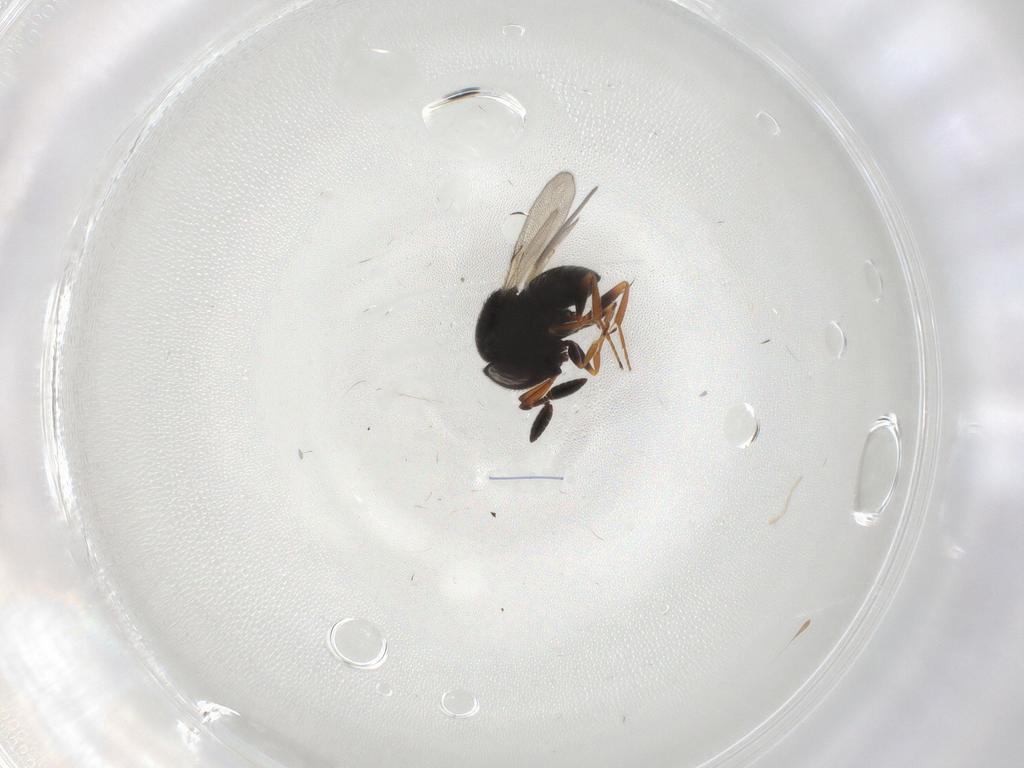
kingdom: Animalia
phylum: Arthropoda
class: Insecta
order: Hymenoptera
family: Scelionidae
